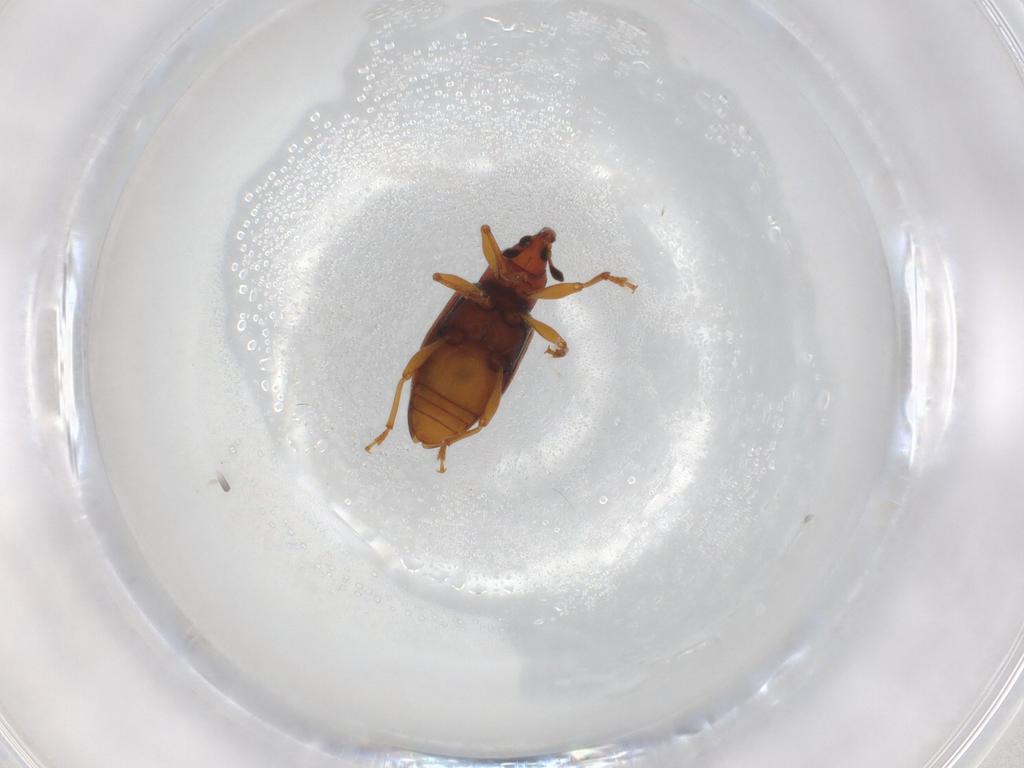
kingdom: Animalia
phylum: Arthropoda
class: Insecta
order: Coleoptera
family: Curculionidae
